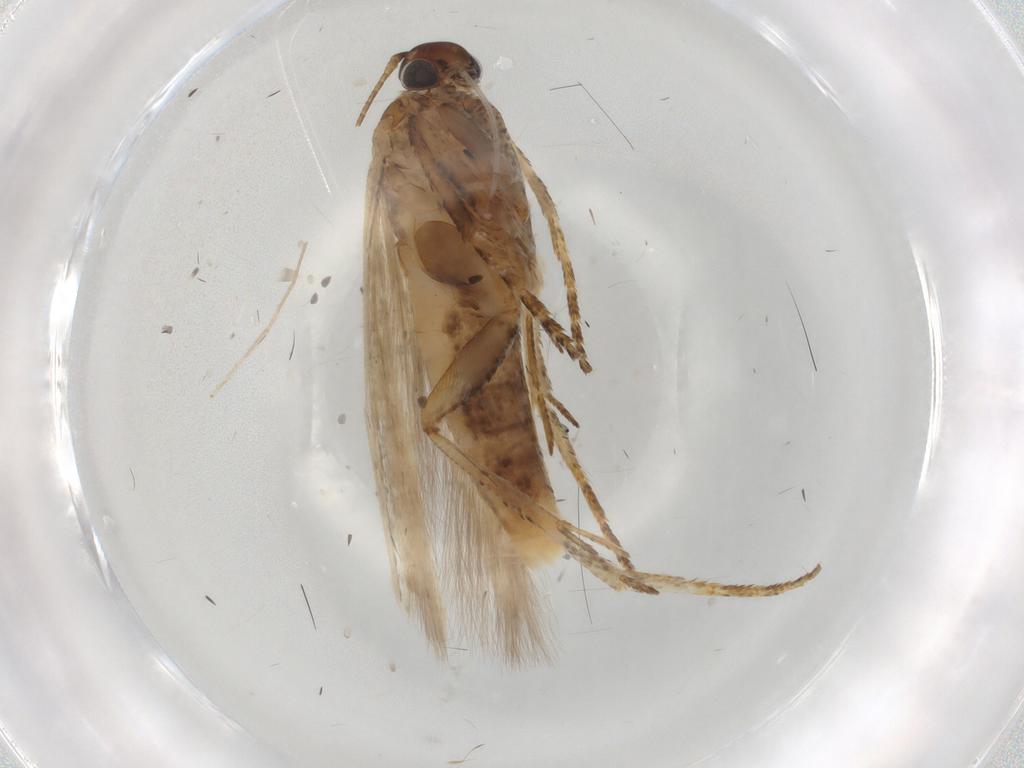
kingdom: Animalia
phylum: Arthropoda
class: Insecta
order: Lepidoptera
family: Gelechiidae
